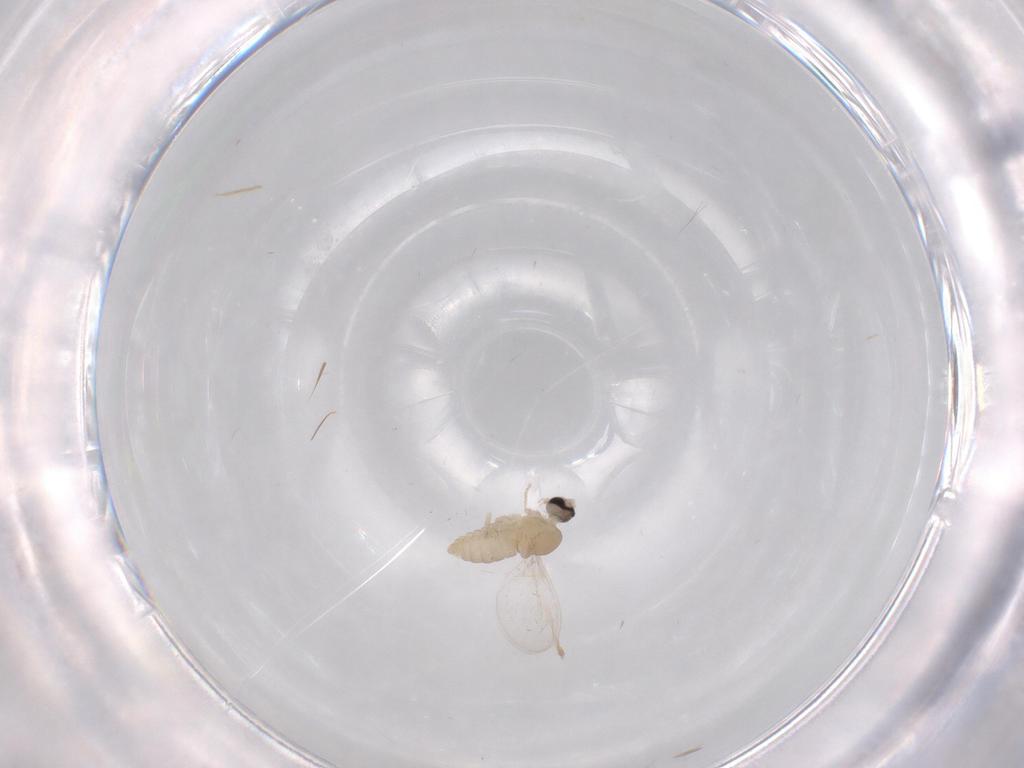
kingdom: Animalia
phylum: Arthropoda
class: Insecta
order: Diptera
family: Cecidomyiidae
